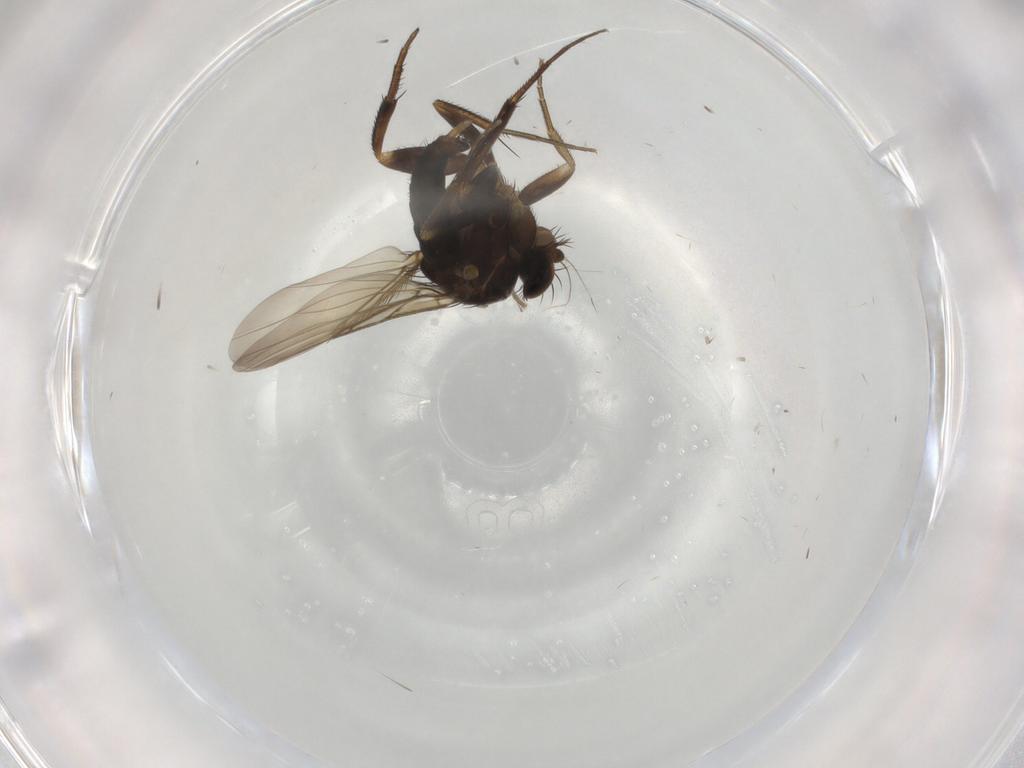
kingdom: Animalia
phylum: Arthropoda
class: Insecta
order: Diptera
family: Phoridae
